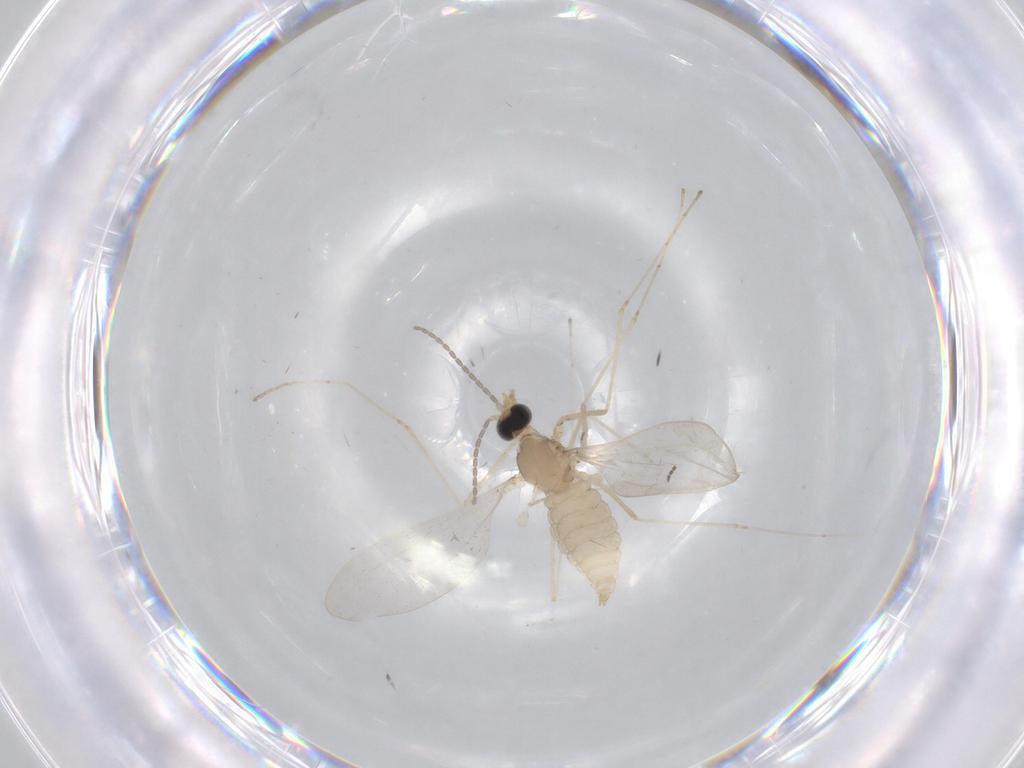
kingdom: Animalia
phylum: Arthropoda
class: Insecta
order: Diptera
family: Cecidomyiidae
